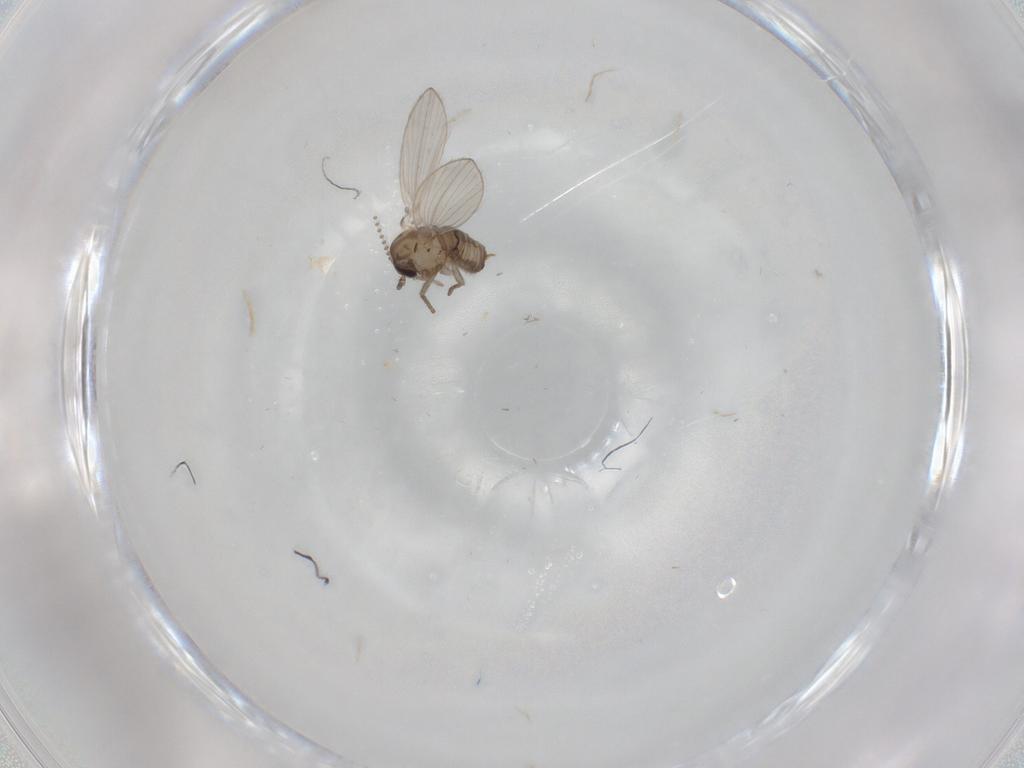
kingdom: Animalia
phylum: Arthropoda
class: Insecta
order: Diptera
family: Psychodidae
